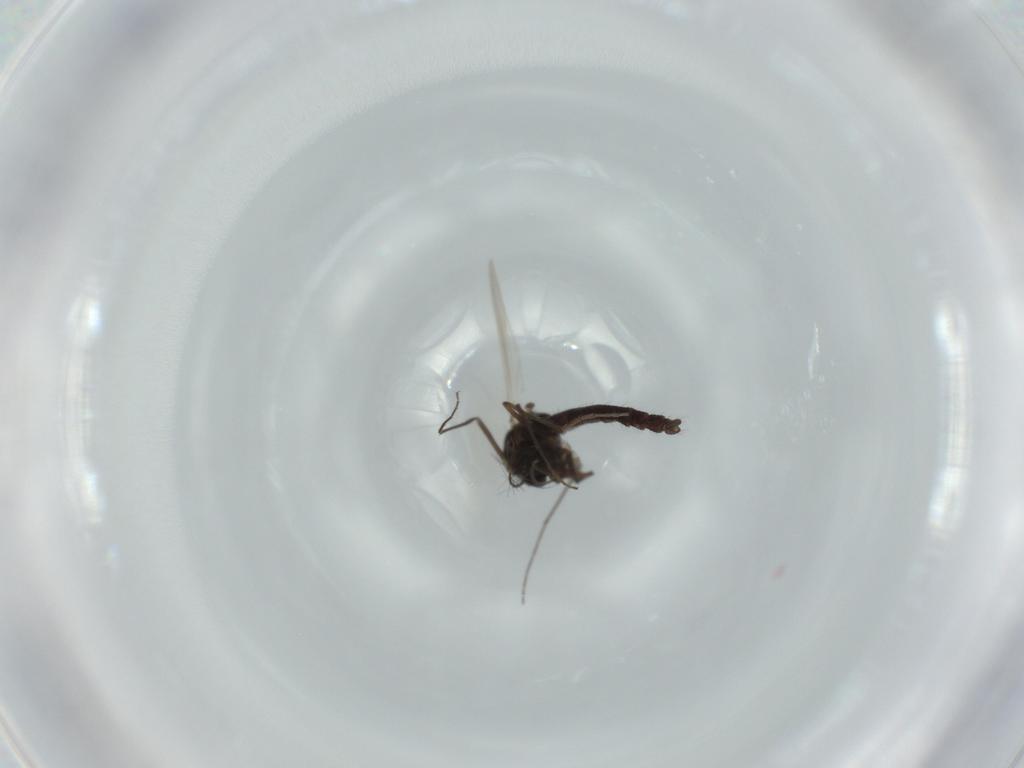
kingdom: Animalia
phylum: Arthropoda
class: Insecta
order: Diptera
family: Chironomidae
